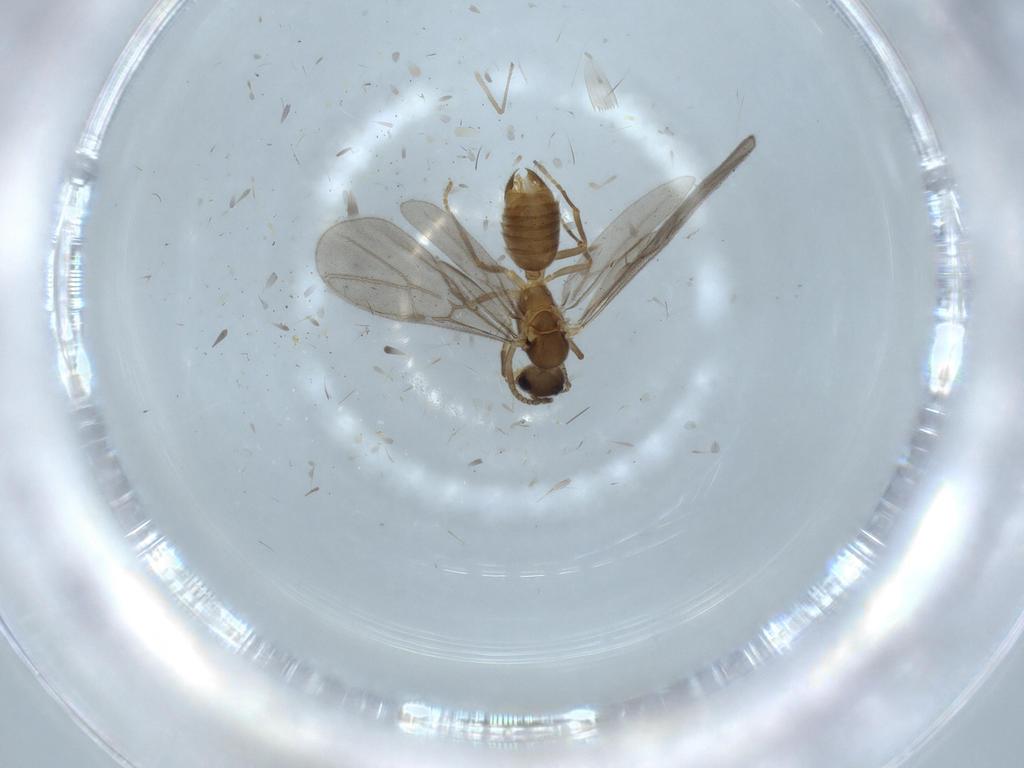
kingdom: Animalia
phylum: Arthropoda
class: Insecta
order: Hymenoptera
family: Formicidae
